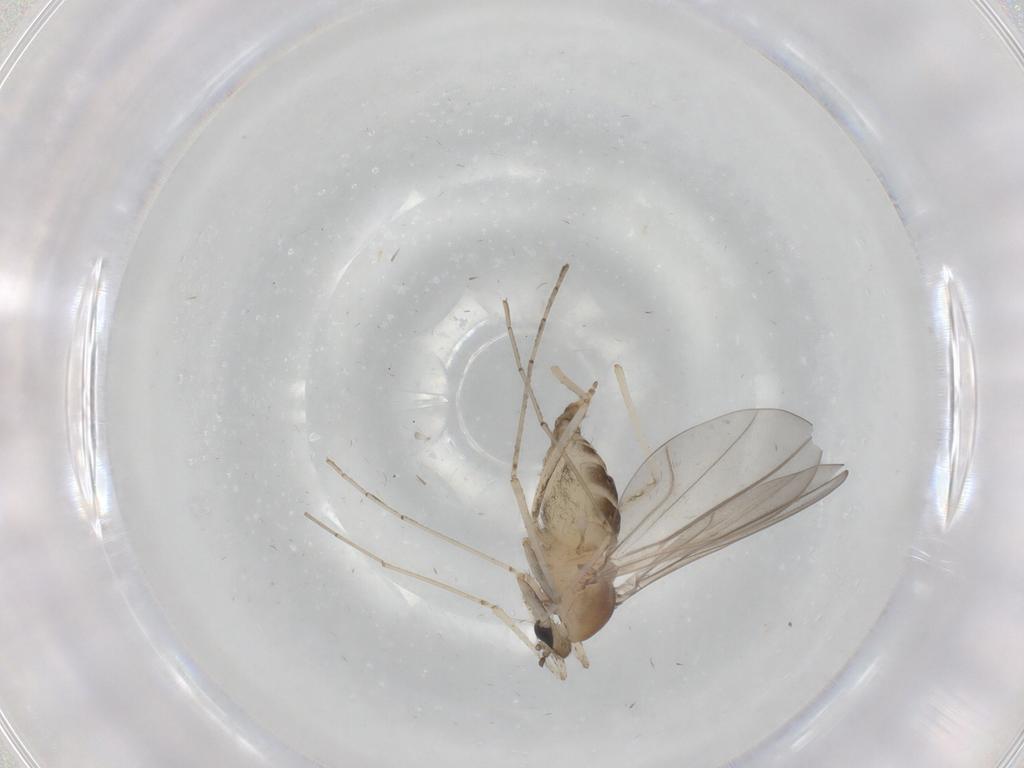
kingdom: Animalia
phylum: Arthropoda
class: Insecta
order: Diptera
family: Cecidomyiidae
